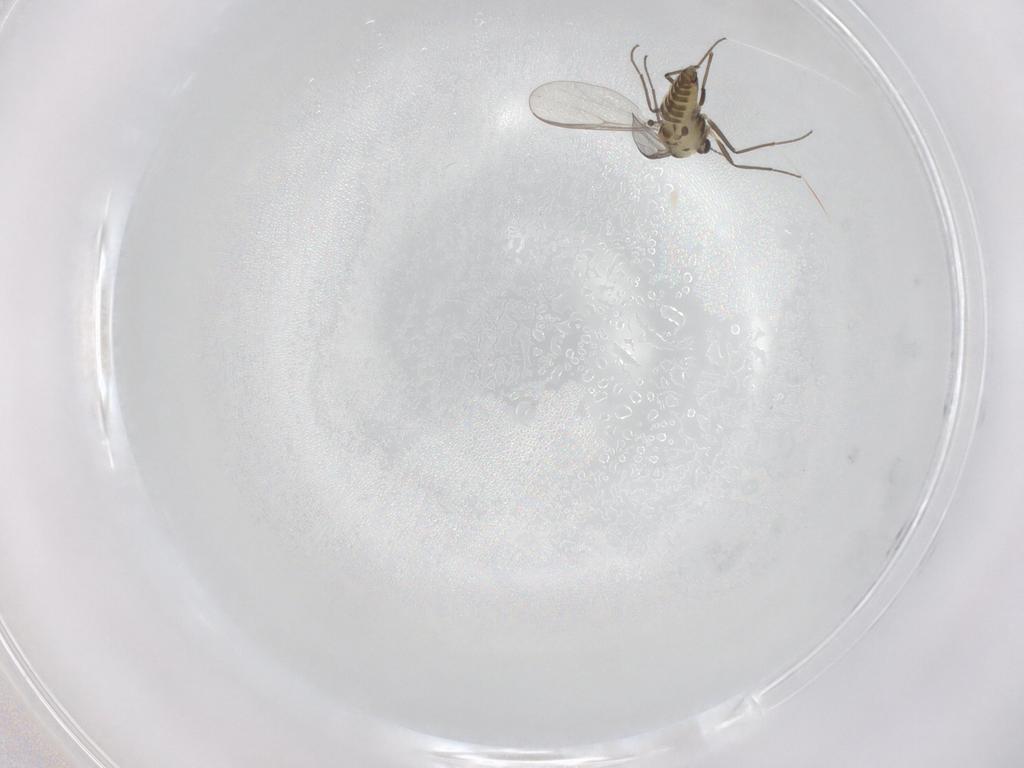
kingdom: Animalia
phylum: Arthropoda
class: Insecta
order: Diptera
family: Chironomidae
